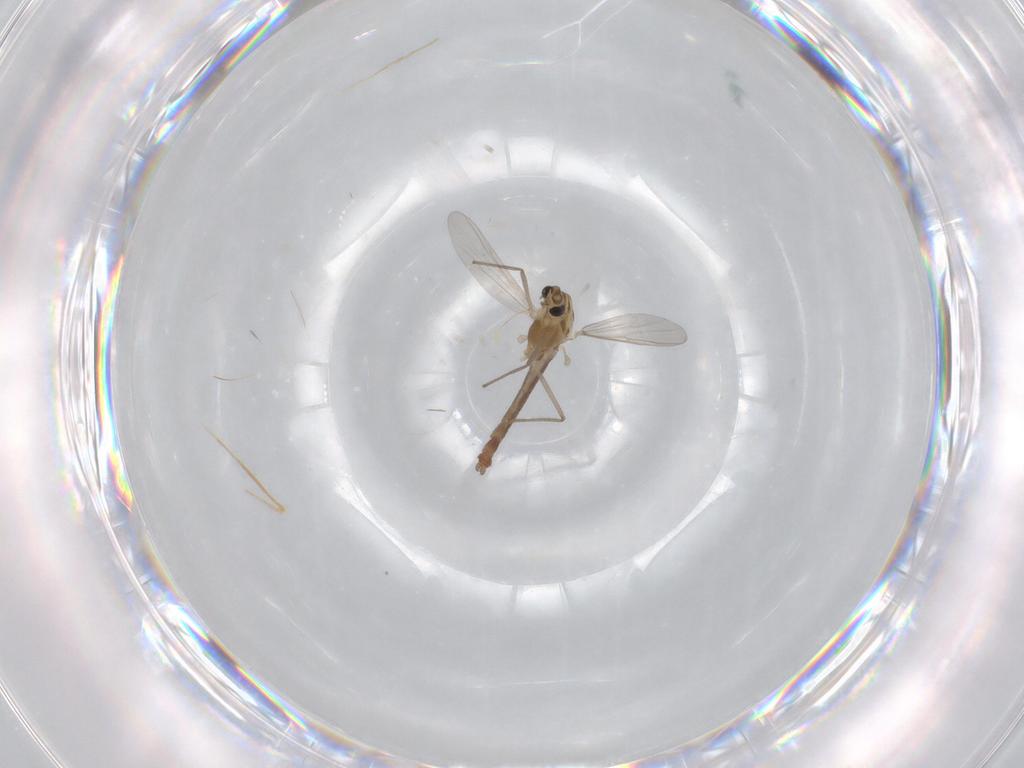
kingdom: Animalia
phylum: Arthropoda
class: Insecta
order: Diptera
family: Chironomidae
